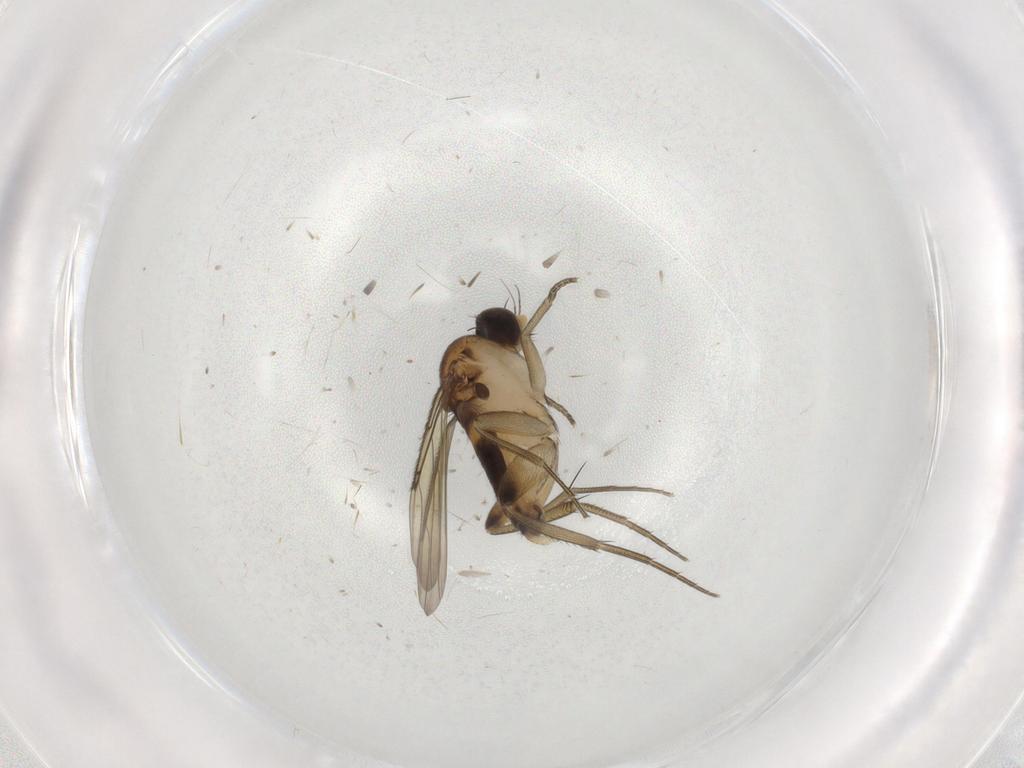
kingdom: Animalia
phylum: Arthropoda
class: Insecta
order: Diptera
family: Phoridae
